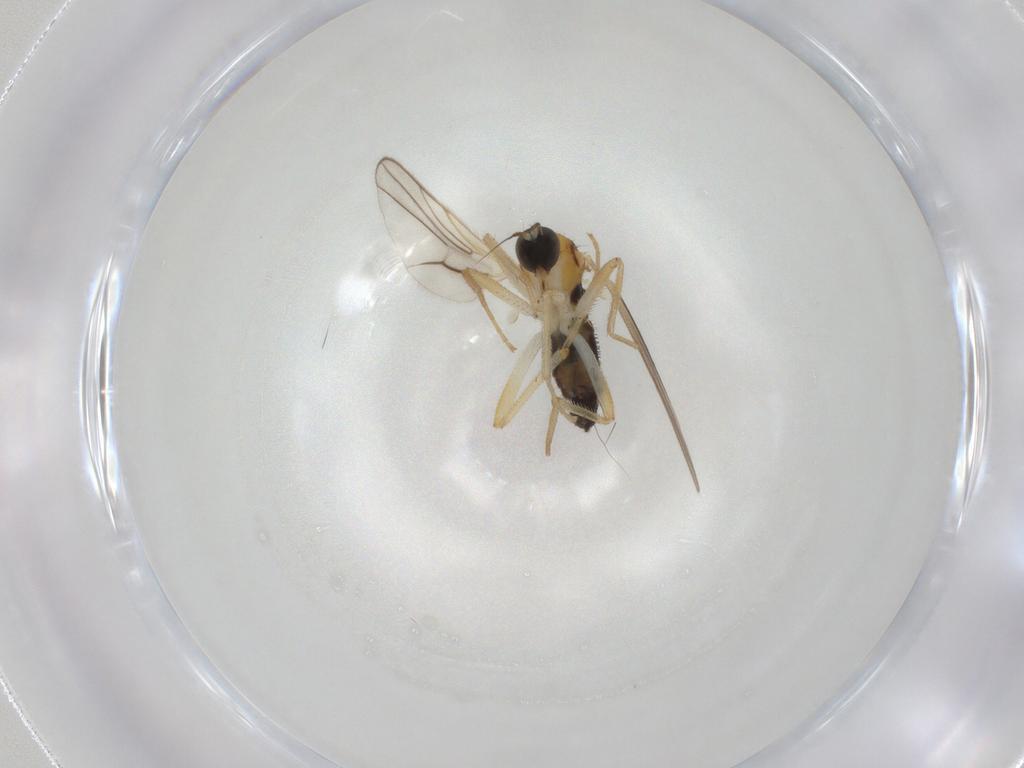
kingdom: Animalia
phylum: Arthropoda
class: Insecta
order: Diptera
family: Hybotidae
